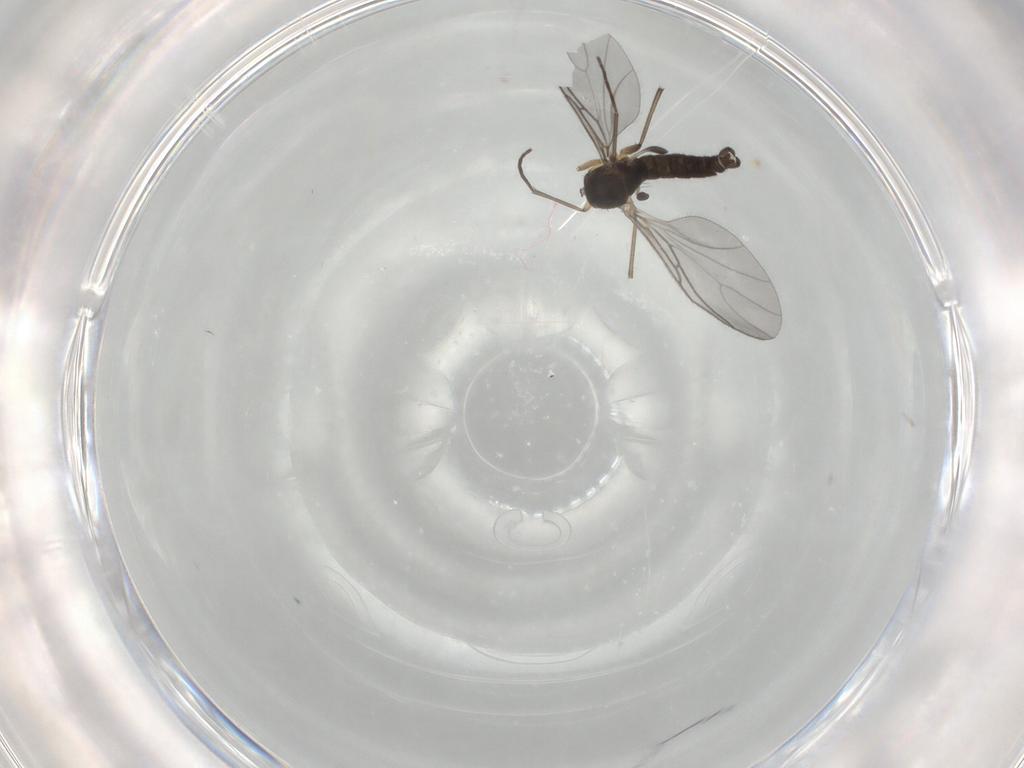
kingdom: Animalia
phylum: Arthropoda
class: Insecta
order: Diptera
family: Sciaridae
